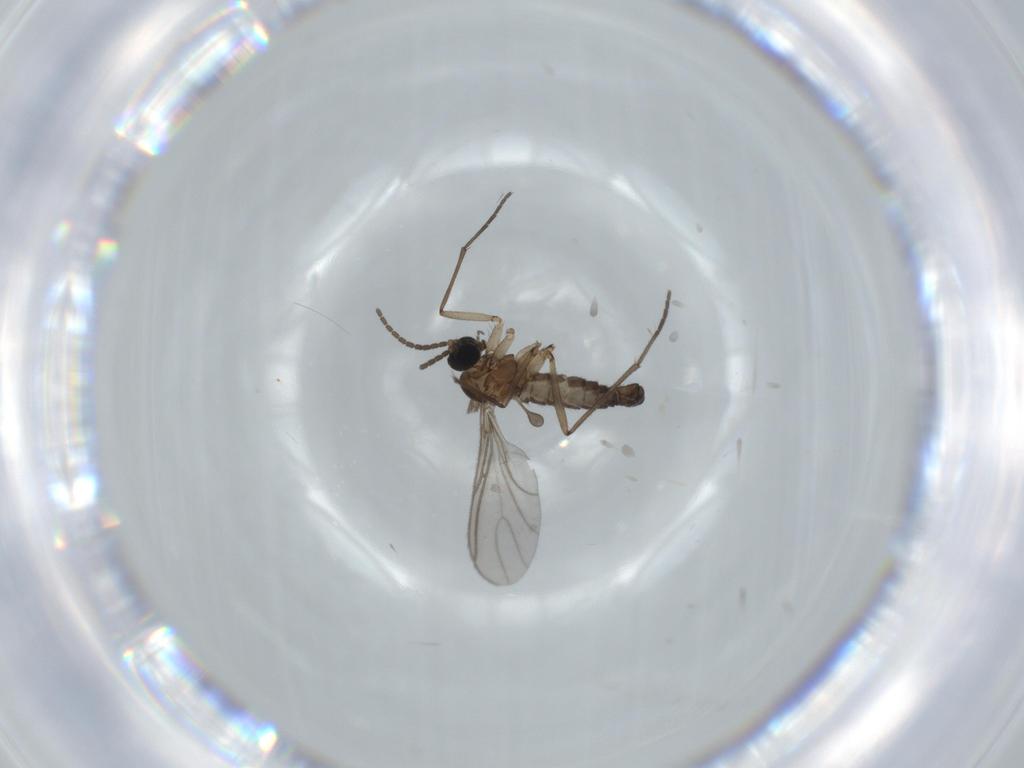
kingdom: Animalia
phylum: Arthropoda
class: Insecta
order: Diptera
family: Sciaridae
